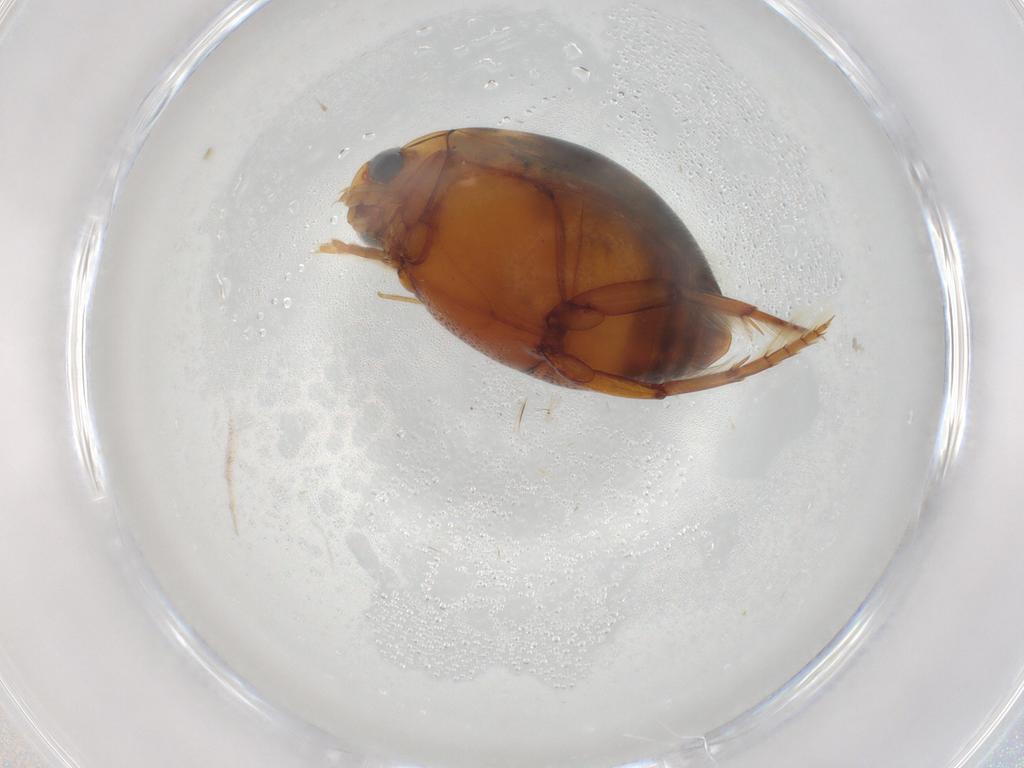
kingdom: Animalia
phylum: Arthropoda
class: Insecta
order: Coleoptera
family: Dytiscidae
